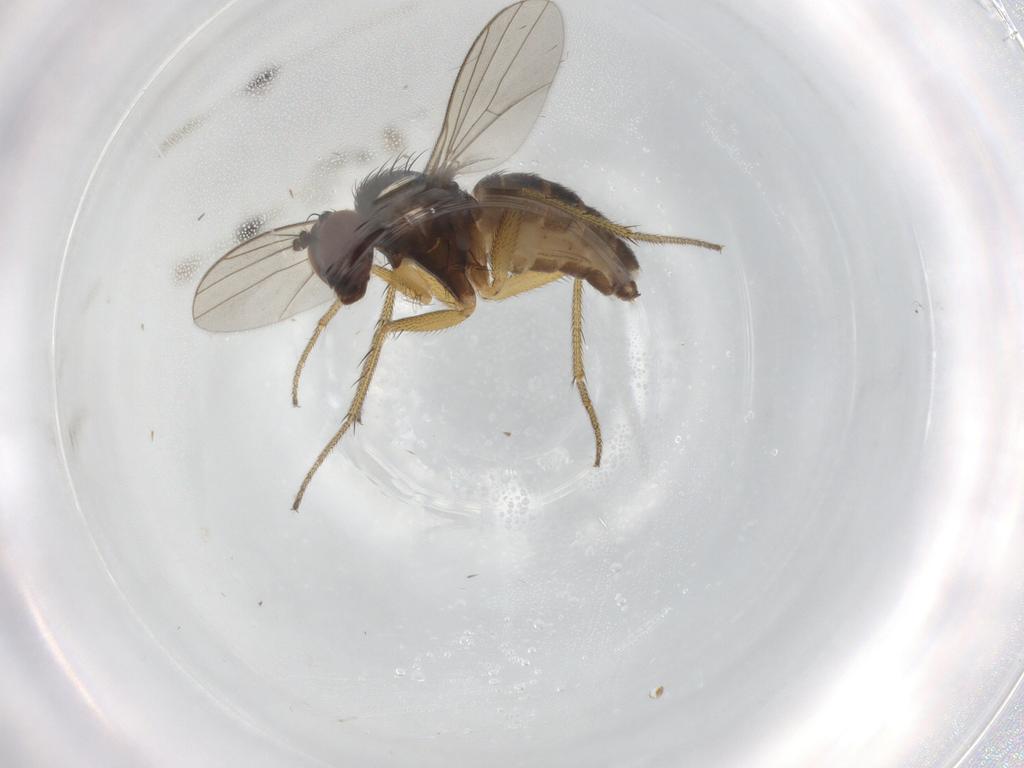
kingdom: Animalia
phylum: Arthropoda
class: Insecta
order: Diptera
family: Dolichopodidae
